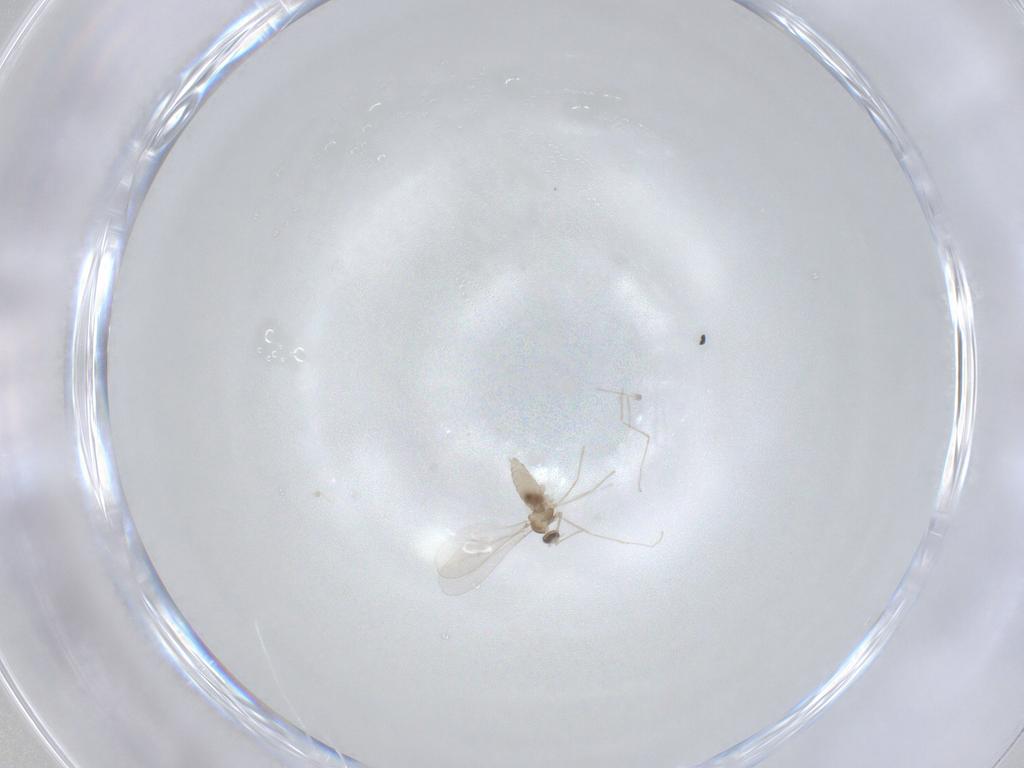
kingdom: Animalia
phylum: Arthropoda
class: Insecta
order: Diptera
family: Cecidomyiidae
